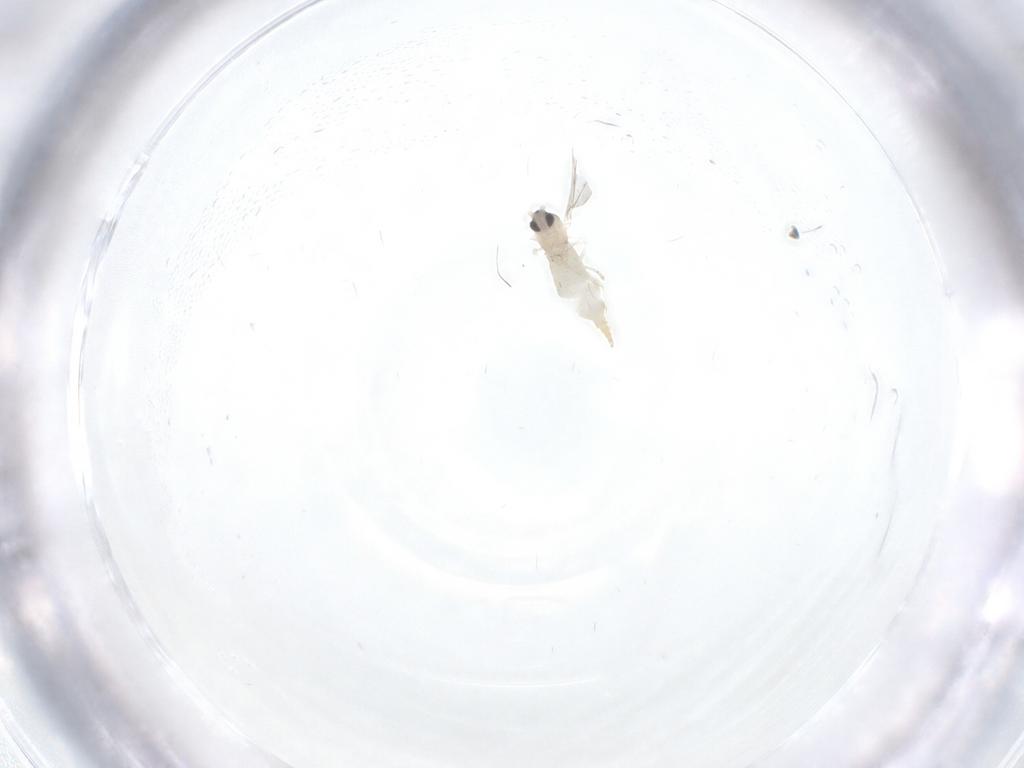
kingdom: Animalia
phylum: Arthropoda
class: Insecta
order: Diptera
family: Cecidomyiidae
